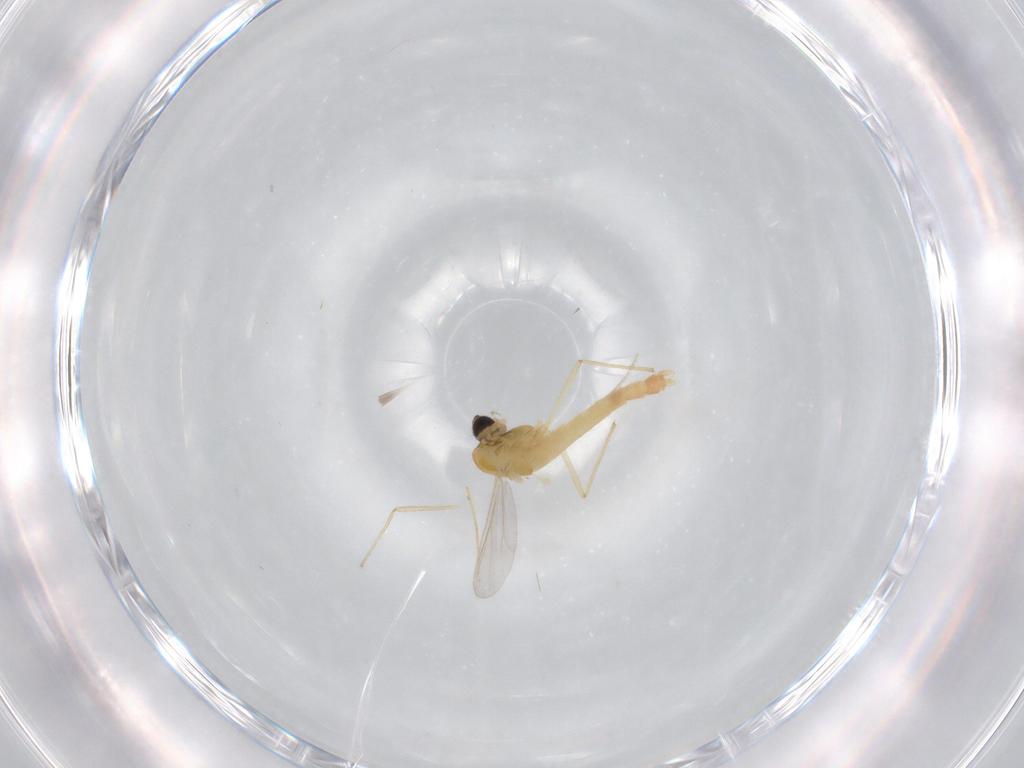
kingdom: Animalia
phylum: Arthropoda
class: Insecta
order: Diptera
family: Chironomidae
